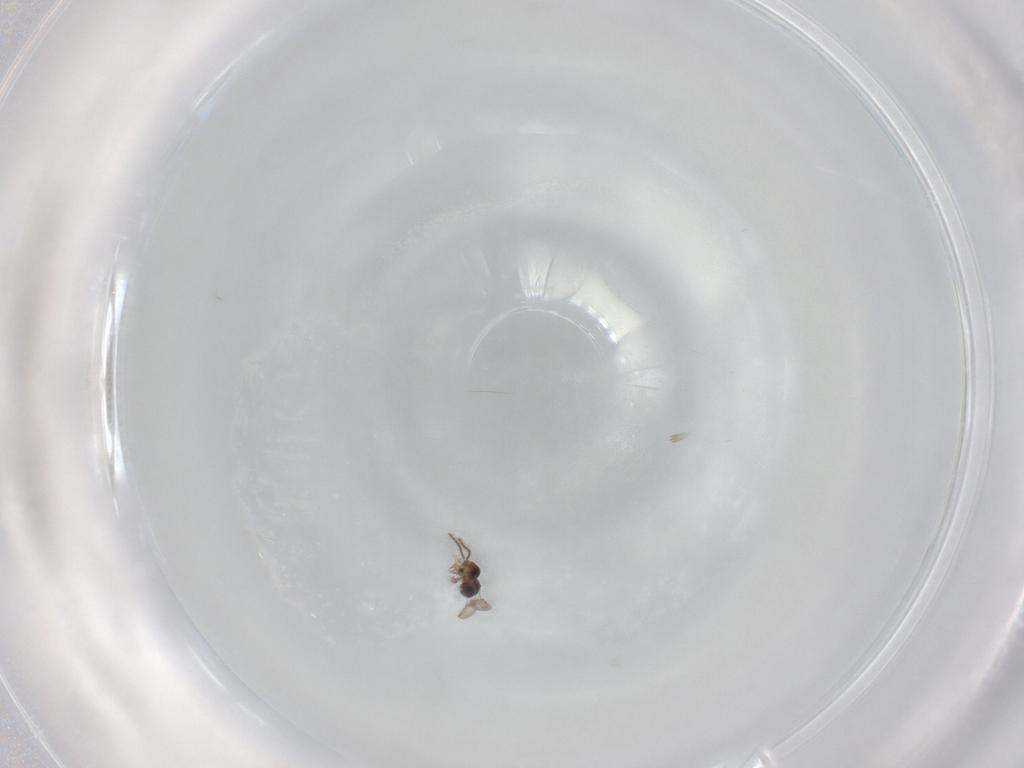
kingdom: Animalia
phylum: Arthropoda
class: Insecta
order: Hymenoptera
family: Ceraphronidae
